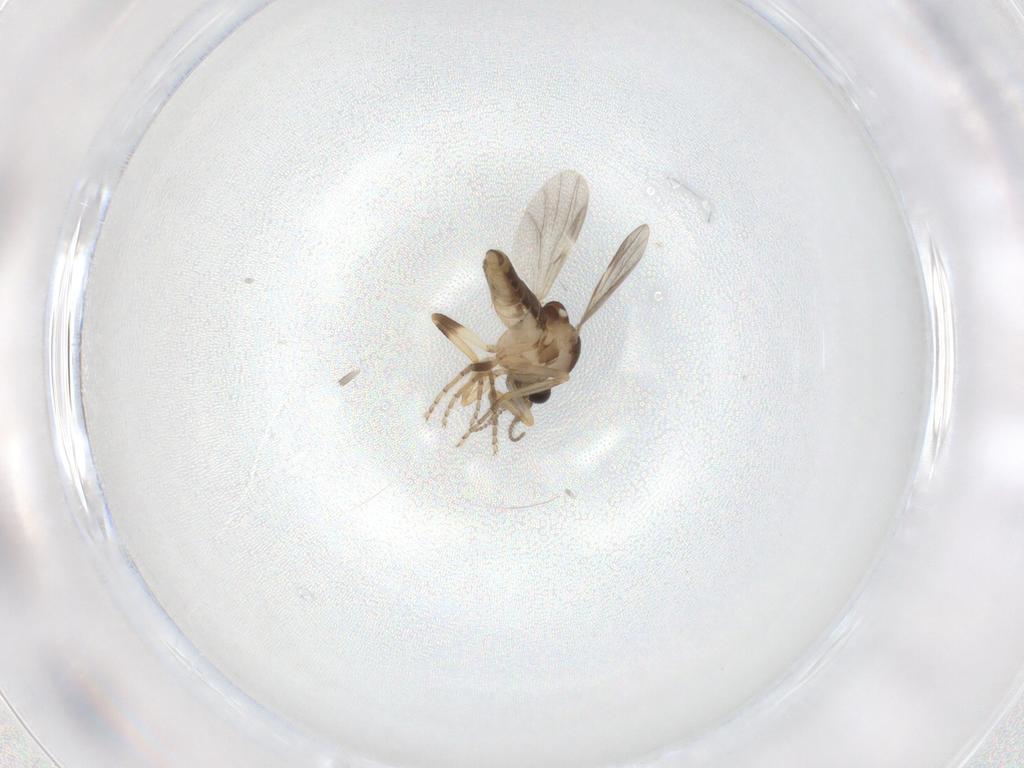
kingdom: Animalia
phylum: Arthropoda
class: Insecta
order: Diptera
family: Ceratopogonidae
